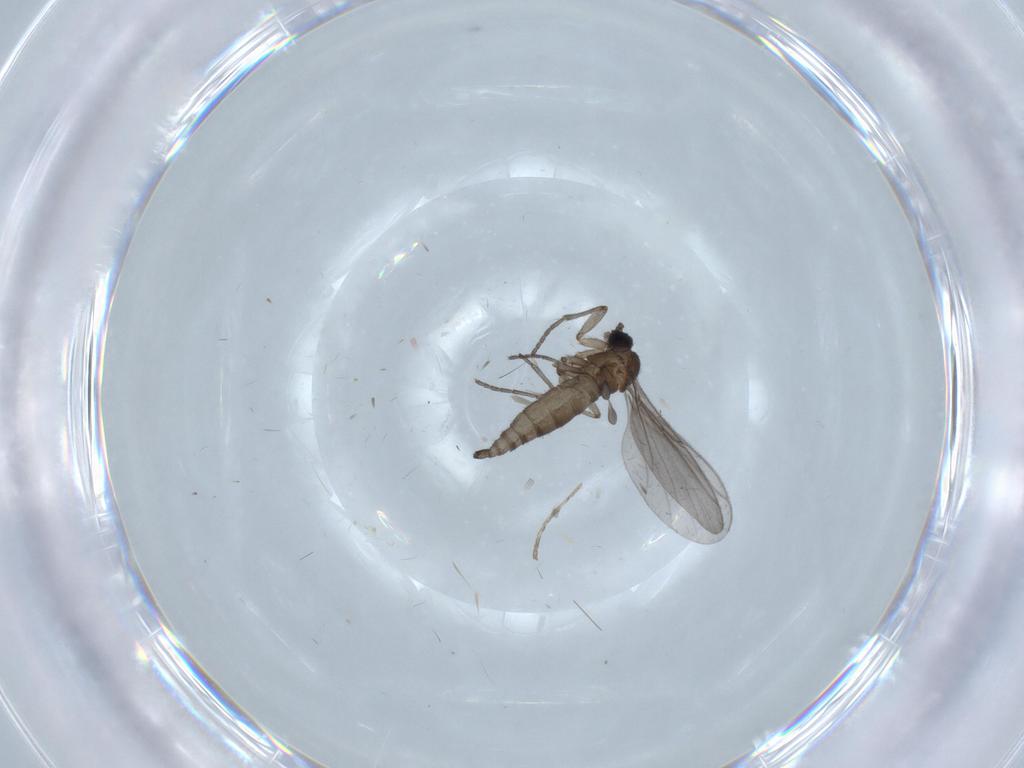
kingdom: Animalia
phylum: Arthropoda
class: Insecta
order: Diptera
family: Sciaridae
